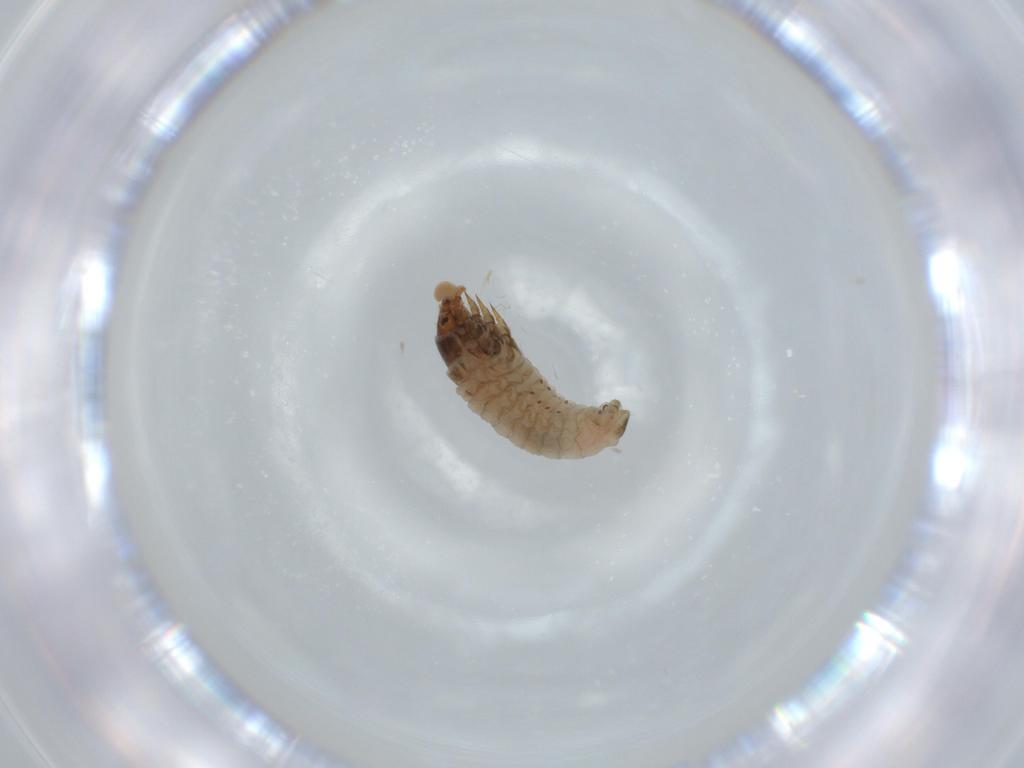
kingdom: Animalia
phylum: Arthropoda
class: Insecta
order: Coleoptera
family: Anthicidae
